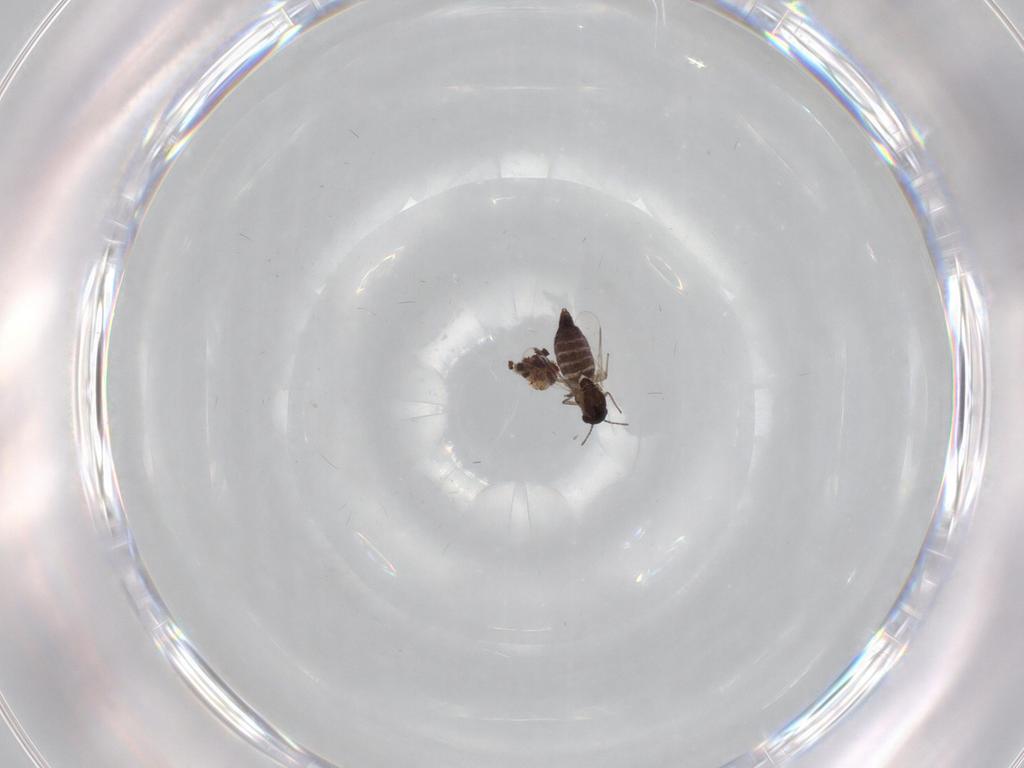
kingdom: Animalia
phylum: Arthropoda
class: Insecta
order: Diptera
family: Chironomidae
